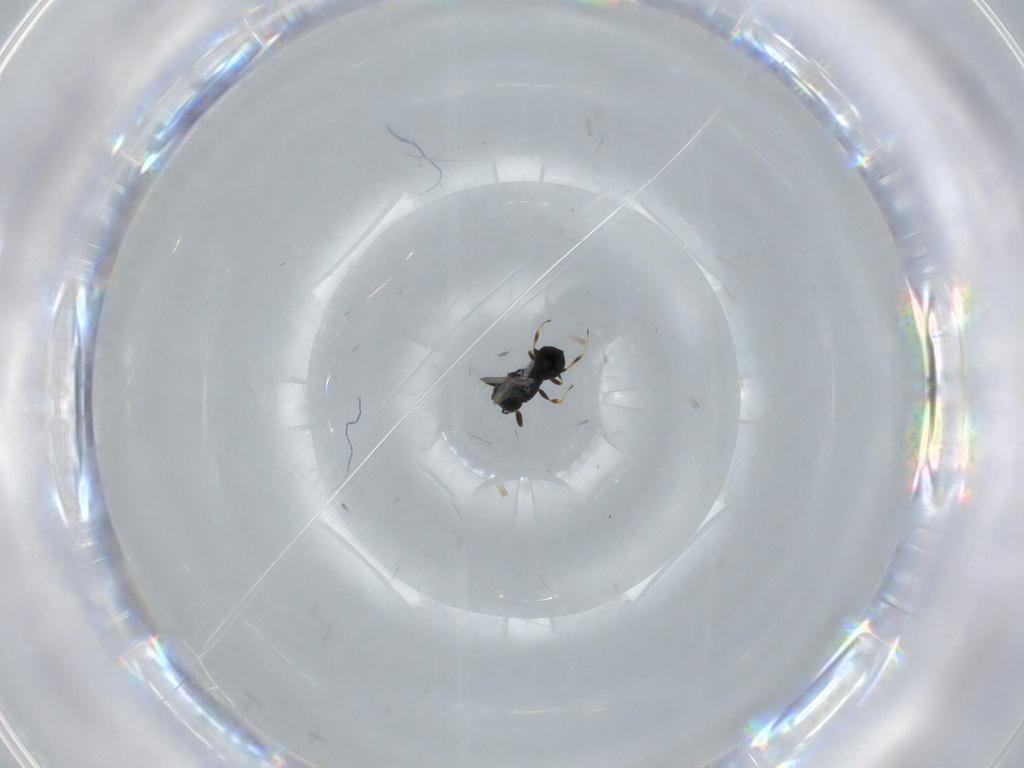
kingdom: Animalia
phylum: Arthropoda
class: Insecta
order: Hymenoptera
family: Scelionidae
